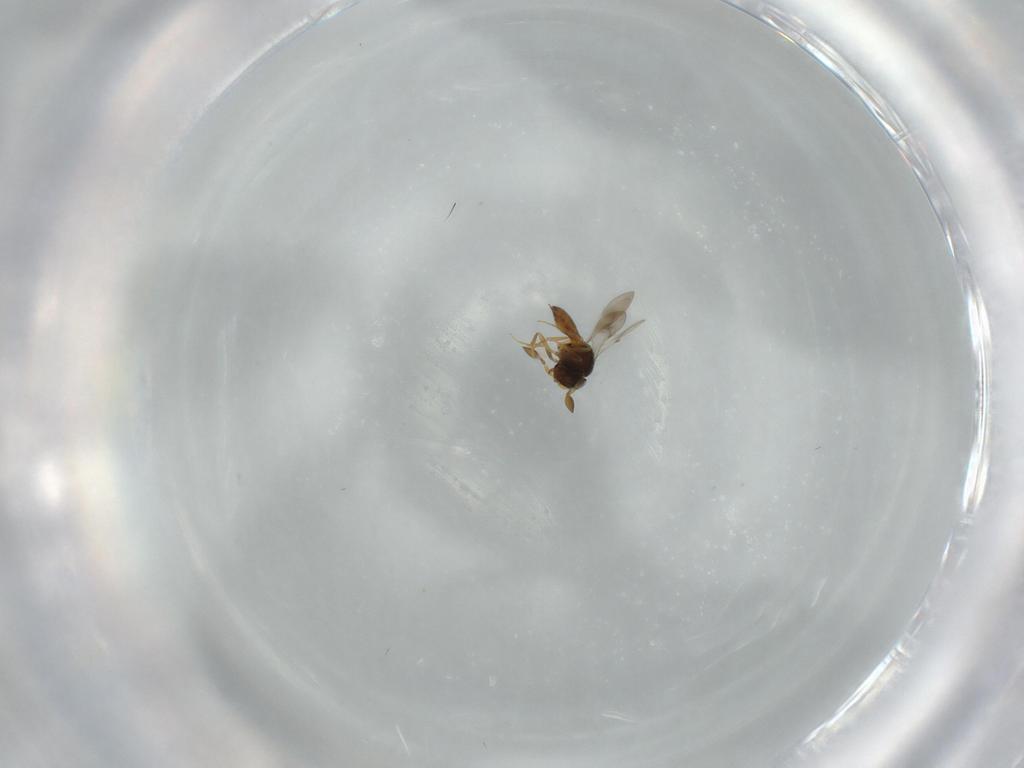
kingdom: Animalia
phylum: Arthropoda
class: Insecta
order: Hymenoptera
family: Scelionidae
